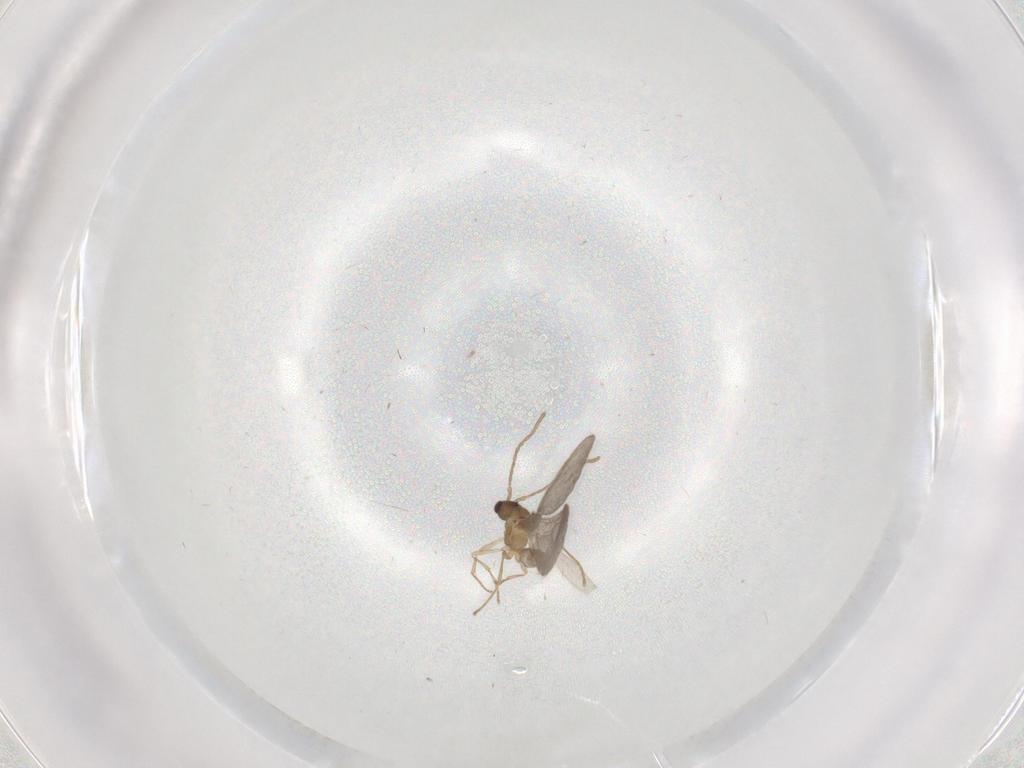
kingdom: Animalia
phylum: Arthropoda
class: Insecta
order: Hymenoptera
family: Formicidae
